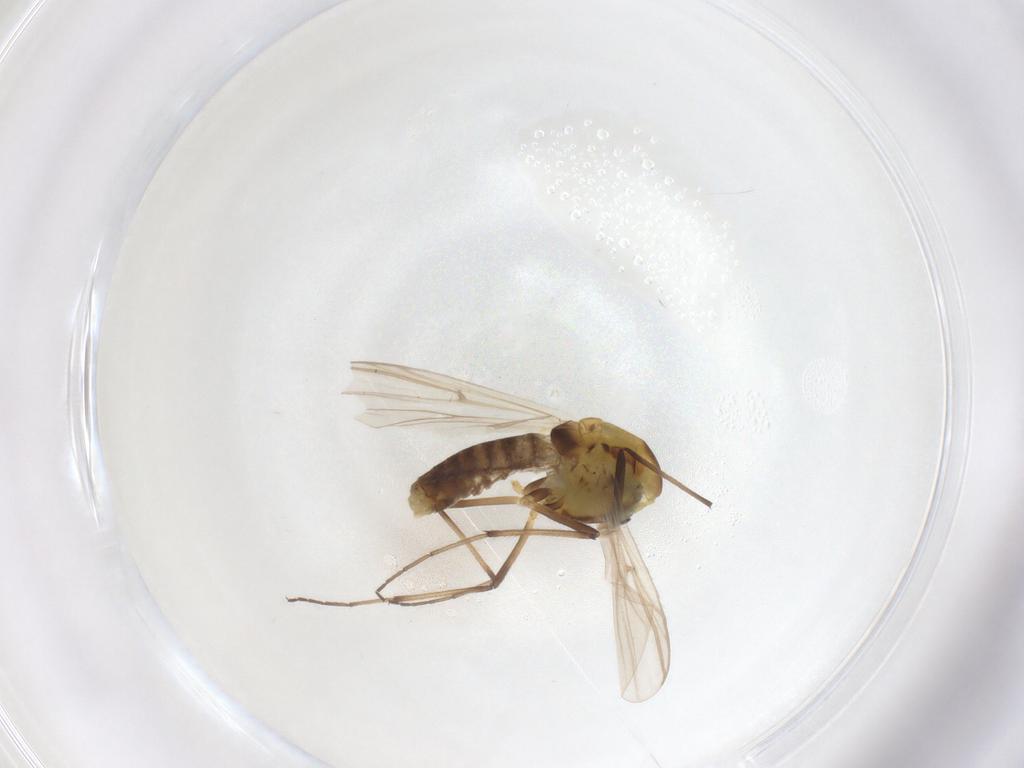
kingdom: Animalia
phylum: Arthropoda
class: Insecta
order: Diptera
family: Chironomidae
